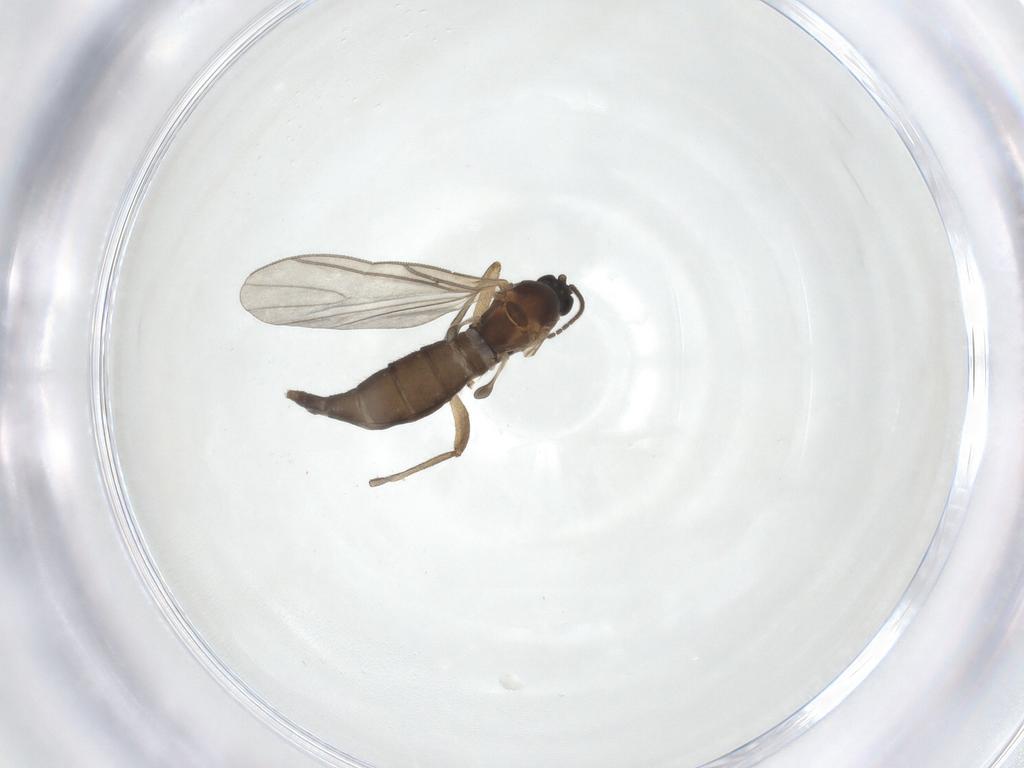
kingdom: Animalia
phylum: Arthropoda
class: Insecta
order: Diptera
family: Sciaridae
